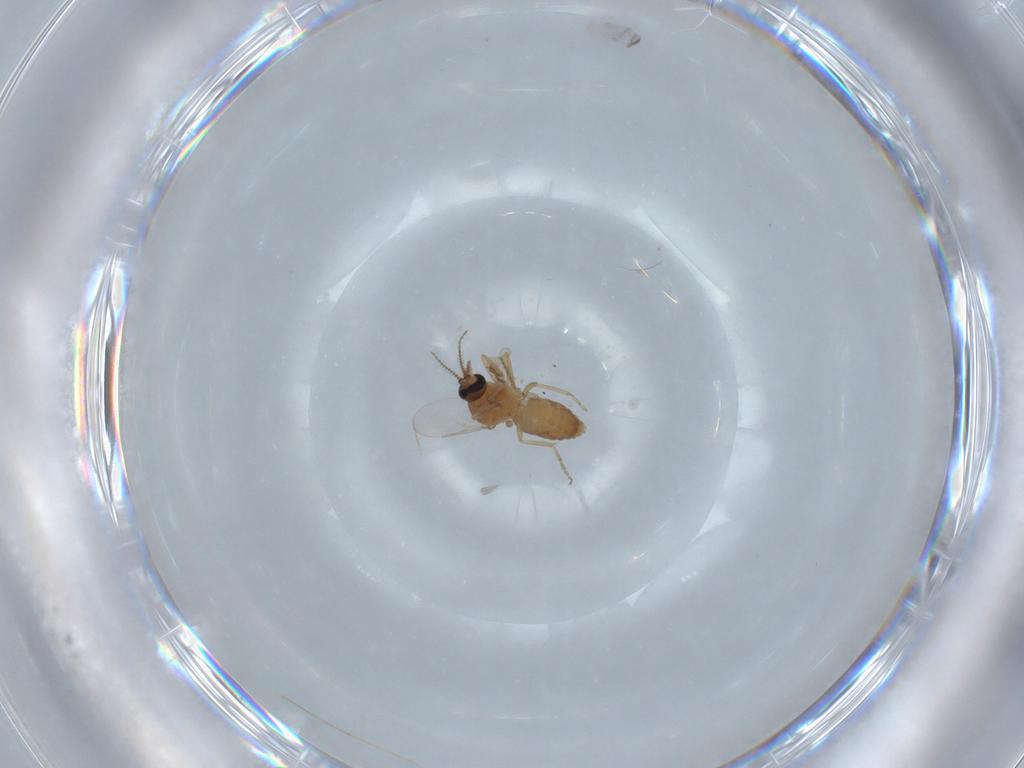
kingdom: Animalia
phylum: Arthropoda
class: Insecta
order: Diptera
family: Ceratopogonidae
